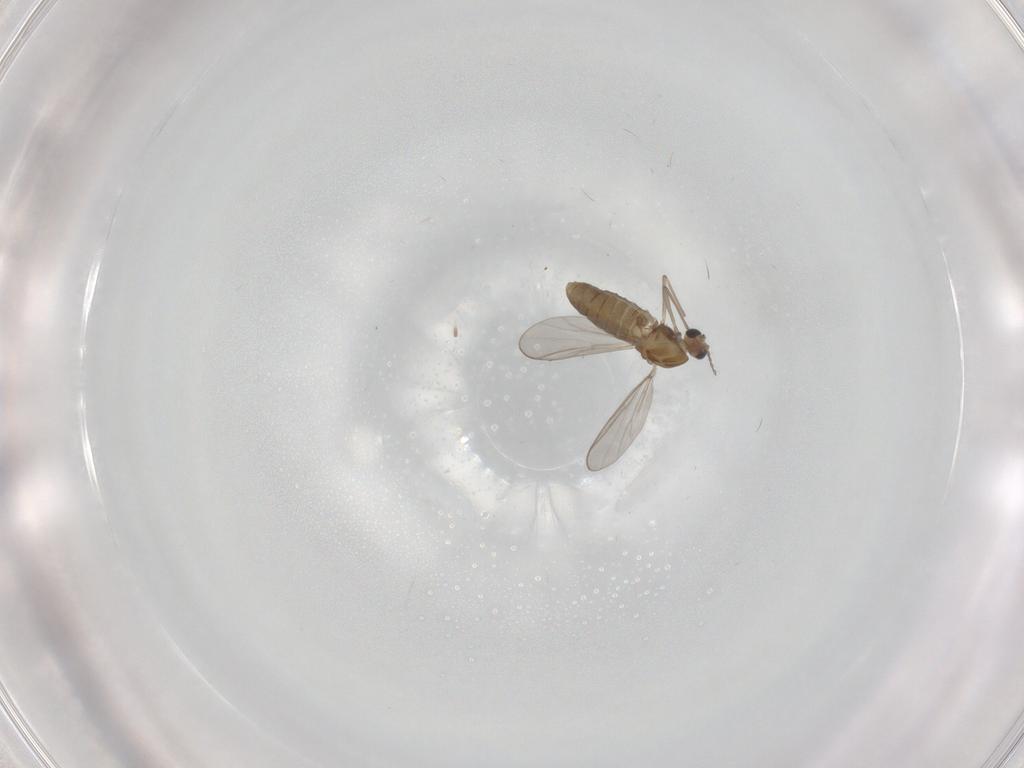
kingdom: Animalia
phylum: Arthropoda
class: Insecta
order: Diptera
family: Chironomidae
